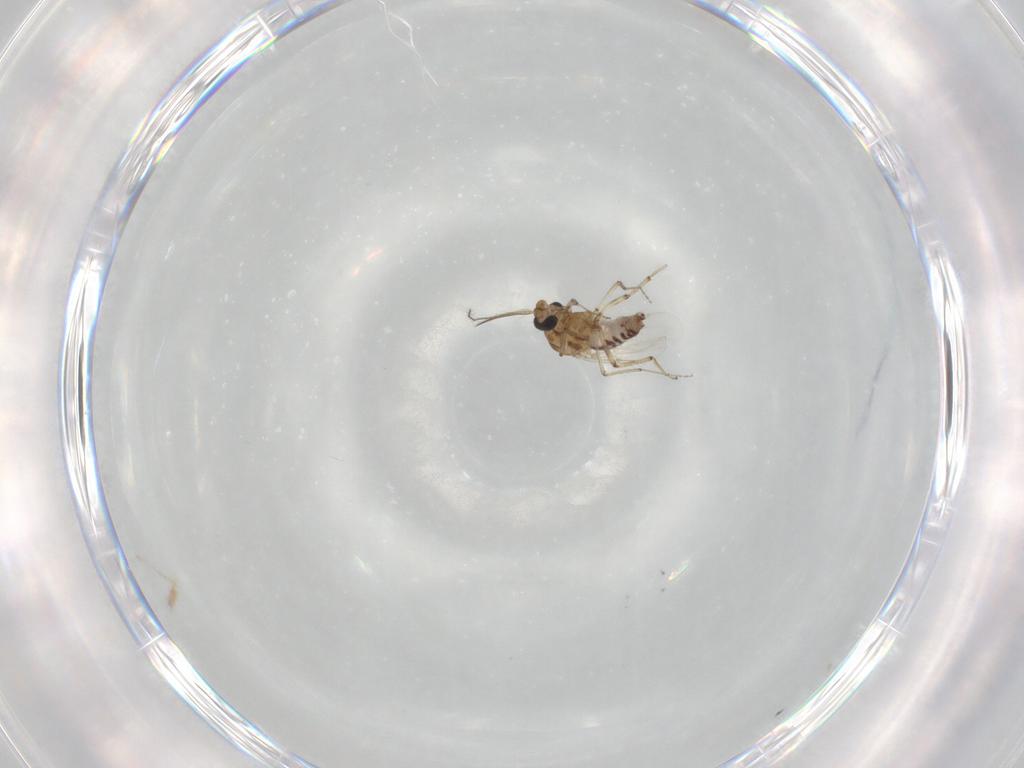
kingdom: Animalia
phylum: Arthropoda
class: Insecta
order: Diptera
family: Ceratopogonidae
